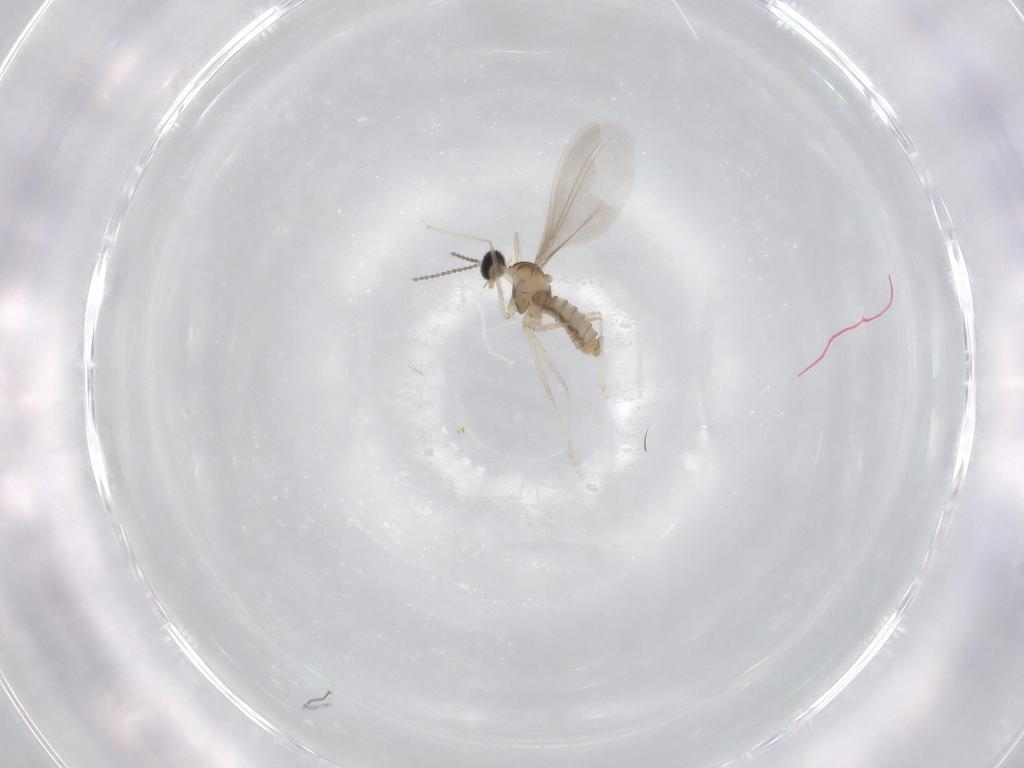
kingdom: Animalia
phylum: Arthropoda
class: Insecta
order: Diptera
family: Cecidomyiidae
